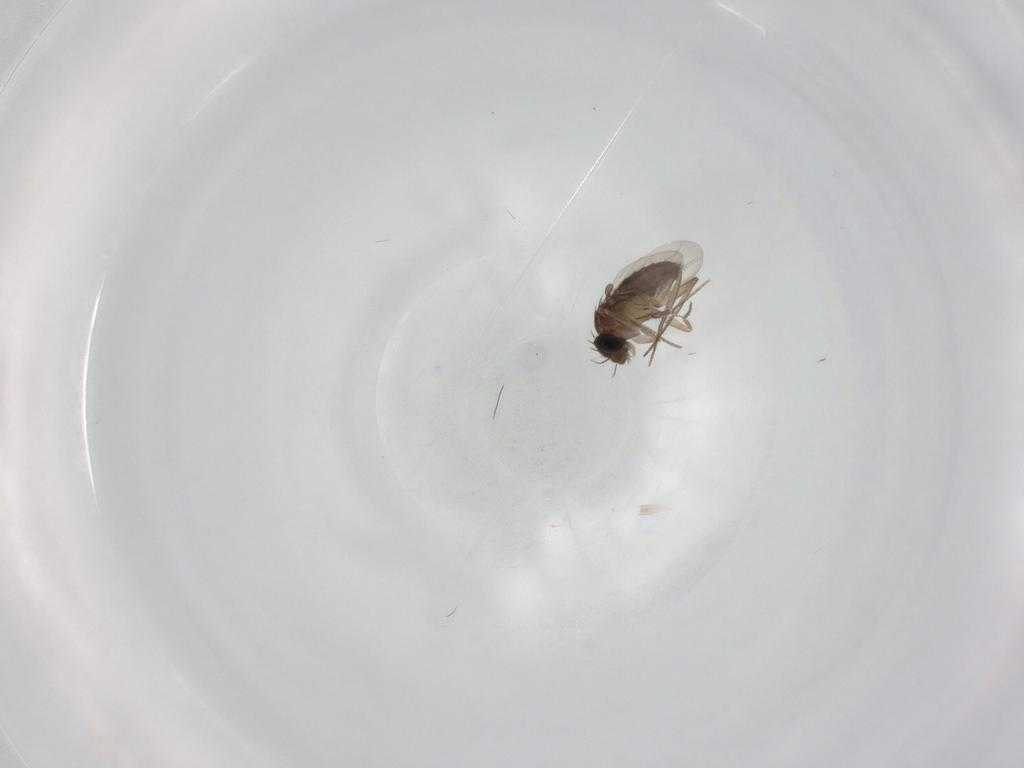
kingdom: Animalia
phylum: Arthropoda
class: Insecta
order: Diptera
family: Phoridae
